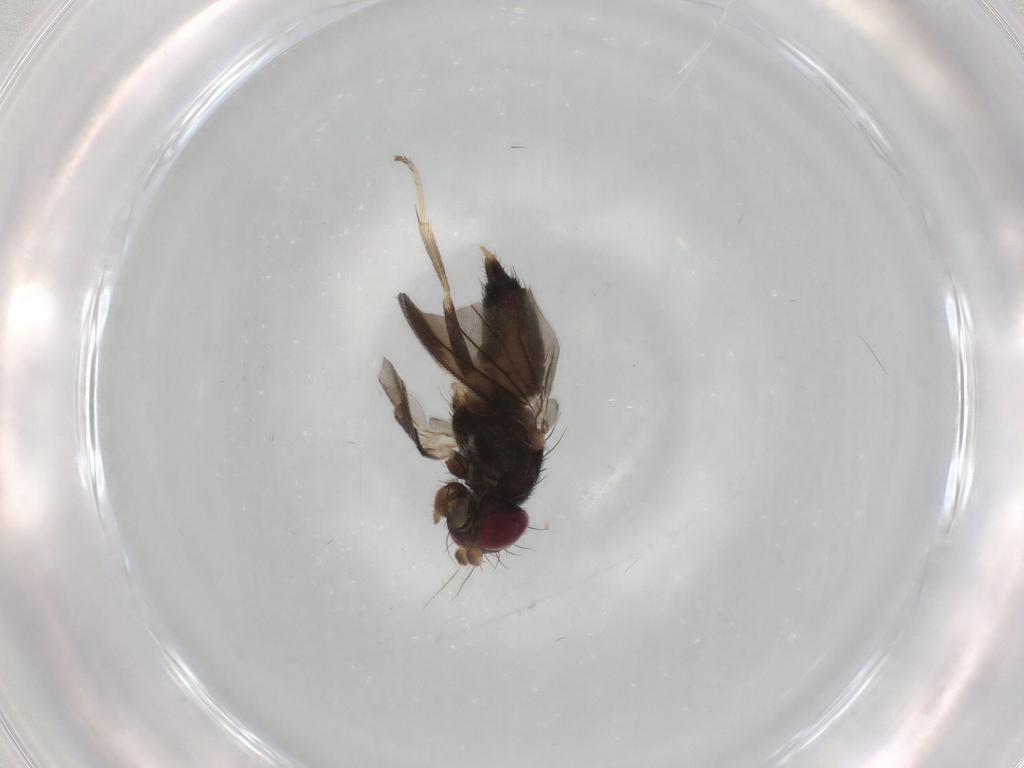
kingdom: Animalia
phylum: Arthropoda
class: Insecta
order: Diptera
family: Clusiidae
